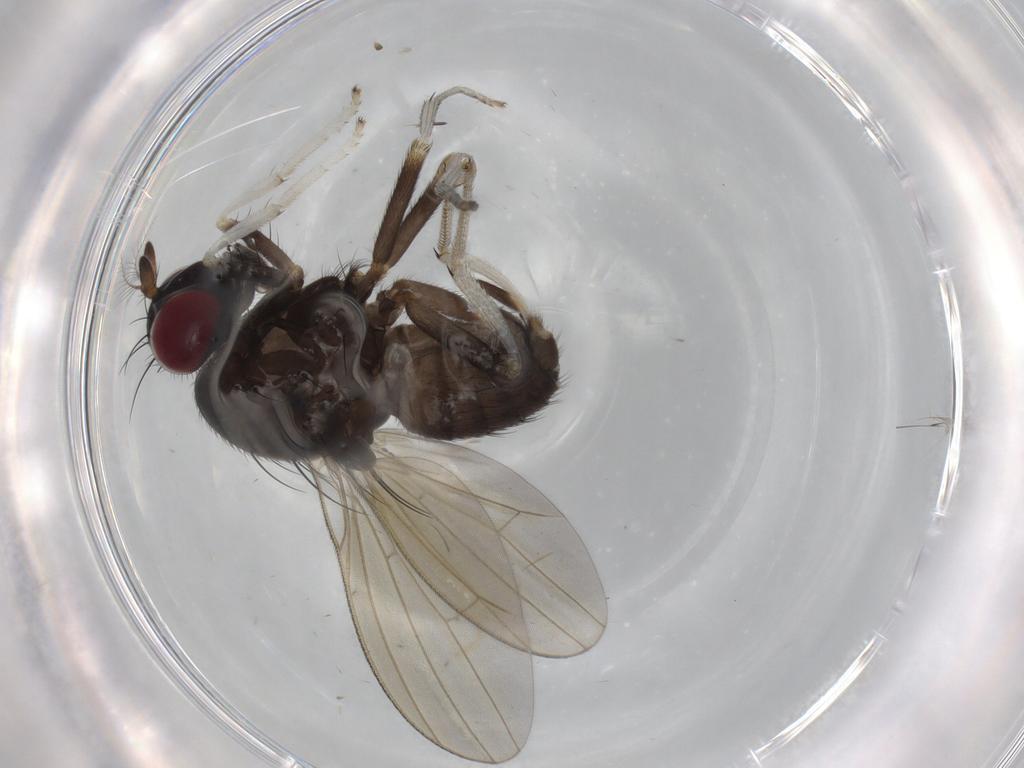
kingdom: Animalia
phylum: Arthropoda
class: Insecta
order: Diptera
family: Lauxaniidae
